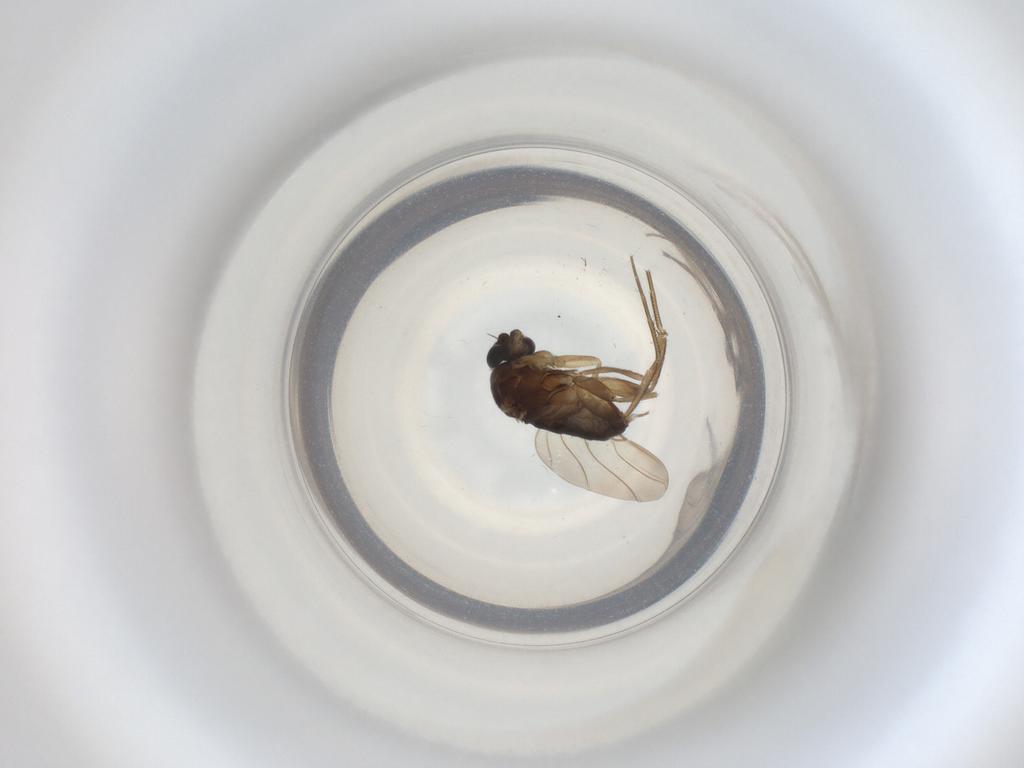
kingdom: Animalia
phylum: Arthropoda
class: Insecta
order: Diptera
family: Phoridae
